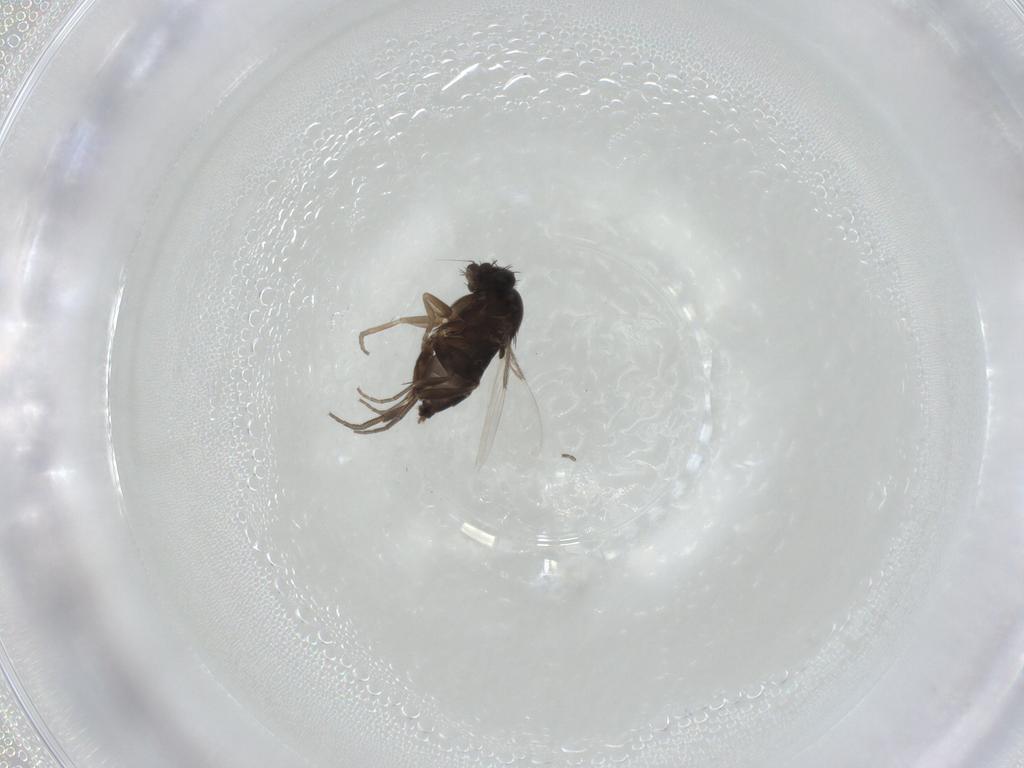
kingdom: Animalia
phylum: Arthropoda
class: Insecta
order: Diptera
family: Phoridae
